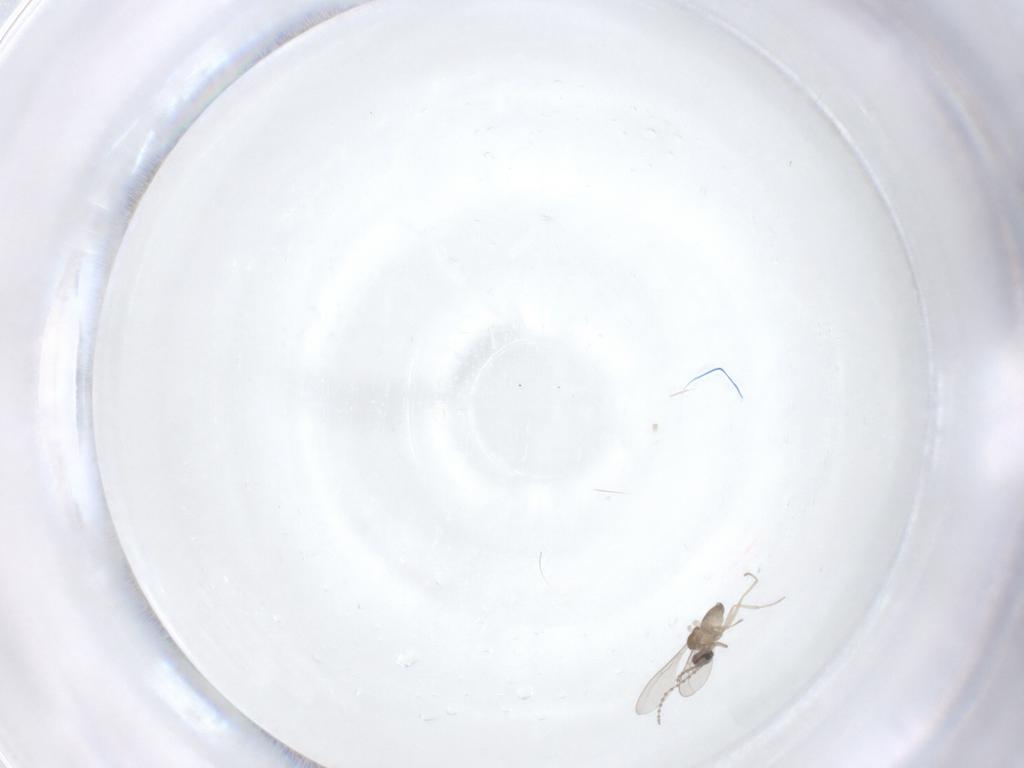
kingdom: Animalia
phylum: Arthropoda
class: Insecta
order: Diptera
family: Cecidomyiidae
